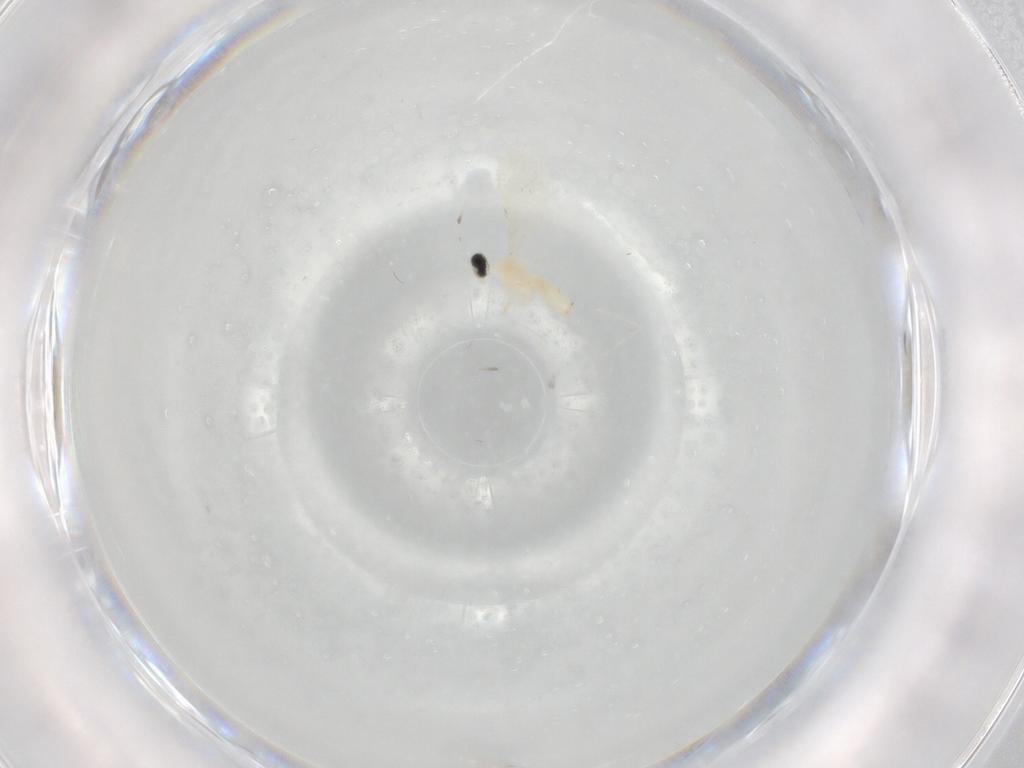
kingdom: Animalia
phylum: Arthropoda
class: Insecta
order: Diptera
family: Cecidomyiidae
